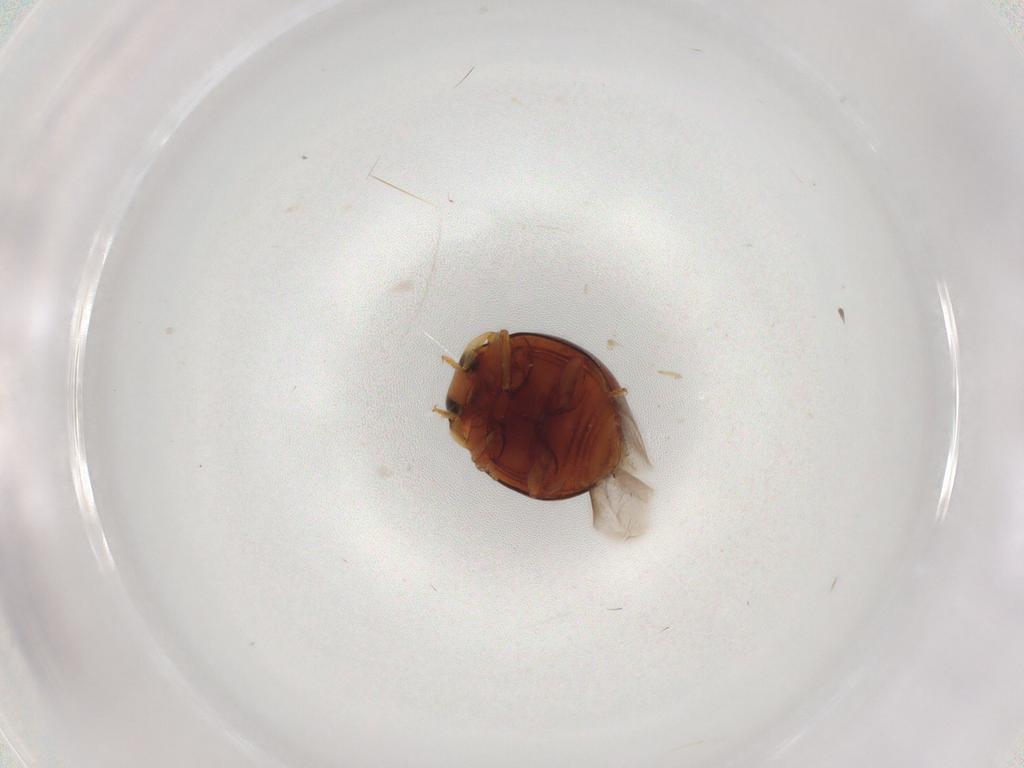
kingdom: Animalia
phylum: Arthropoda
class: Insecta
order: Coleoptera
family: Coccinellidae
